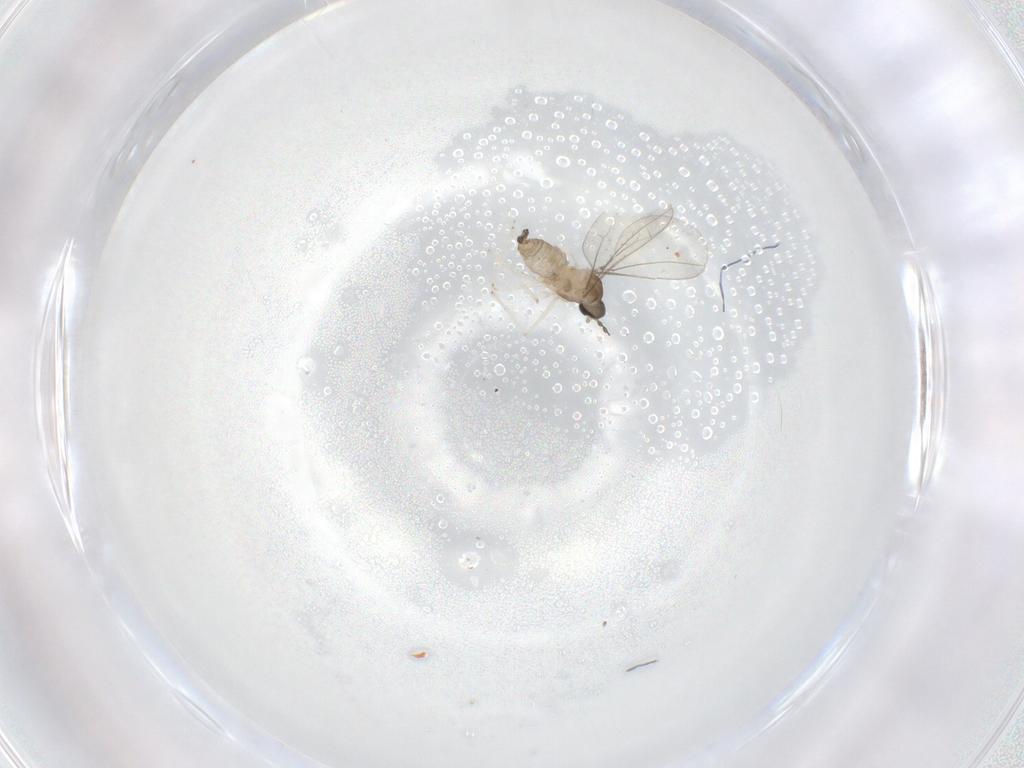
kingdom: Animalia
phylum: Arthropoda
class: Insecta
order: Diptera
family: Cecidomyiidae
